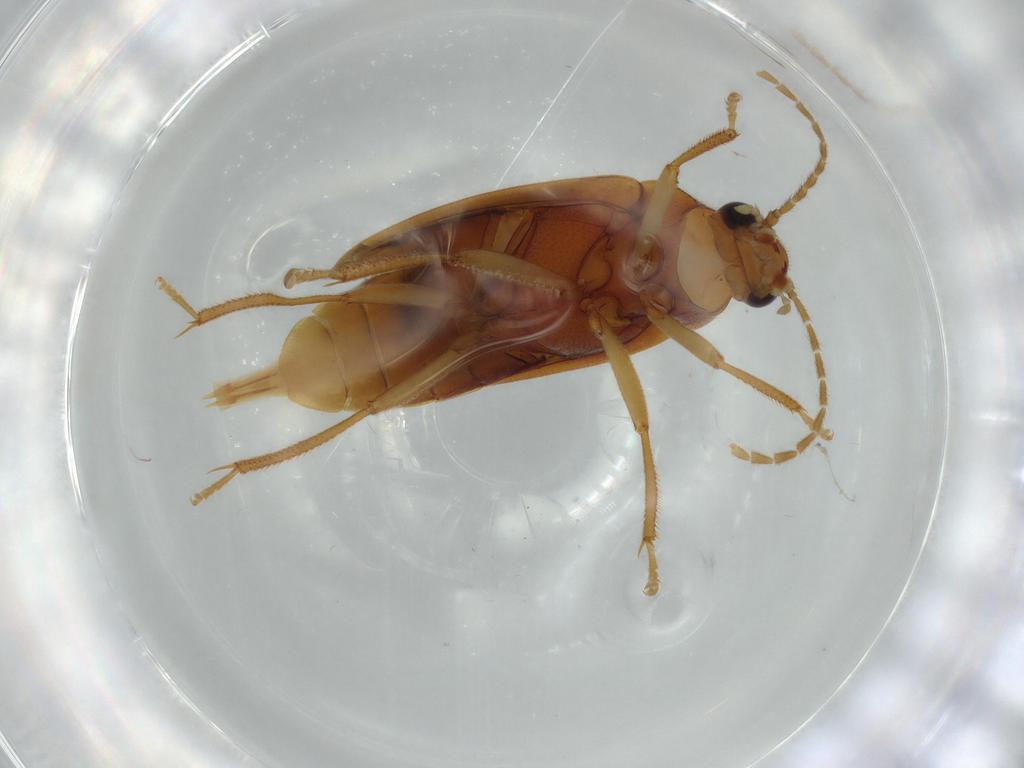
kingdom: Animalia
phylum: Arthropoda
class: Insecta
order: Coleoptera
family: Ptilodactylidae
